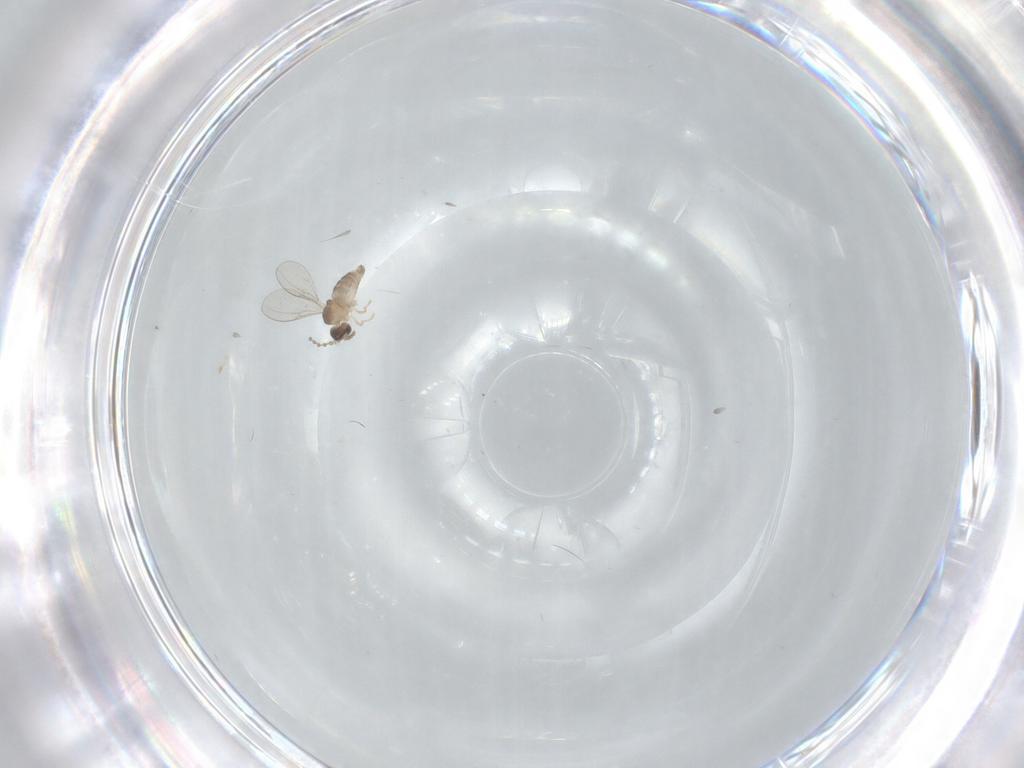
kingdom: Animalia
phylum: Arthropoda
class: Insecta
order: Diptera
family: Cecidomyiidae
